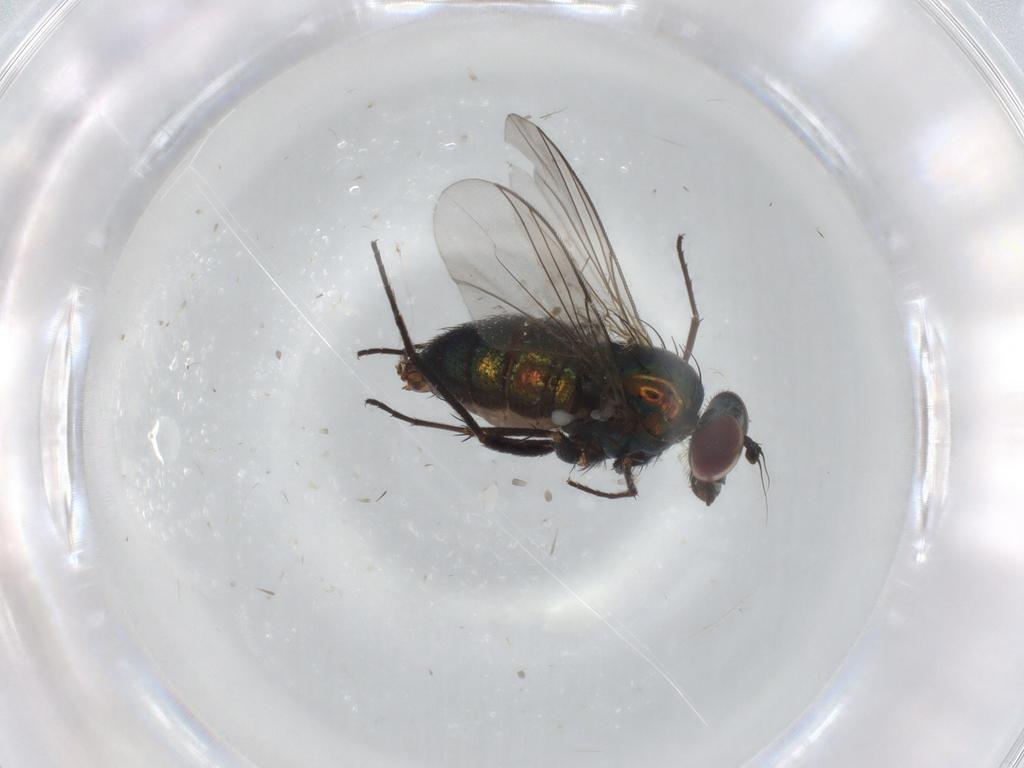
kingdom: Animalia
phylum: Arthropoda
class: Insecta
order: Diptera
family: Dolichopodidae
